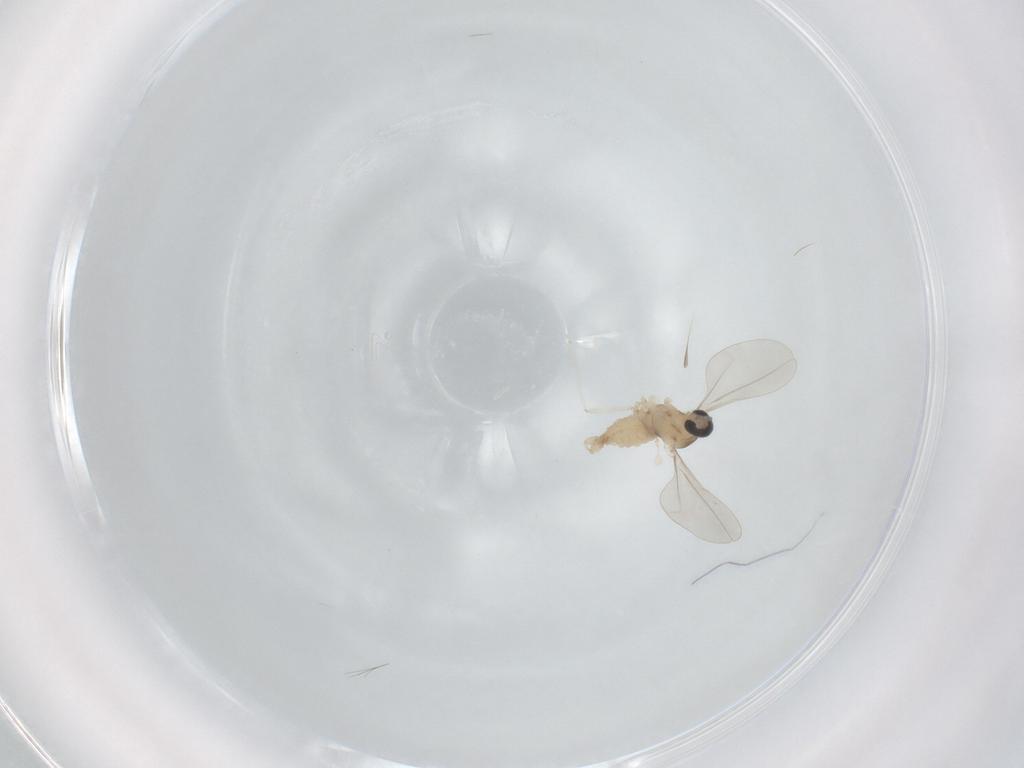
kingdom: Animalia
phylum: Arthropoda
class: Insecta
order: Diptera
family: Cecidomyiidae
